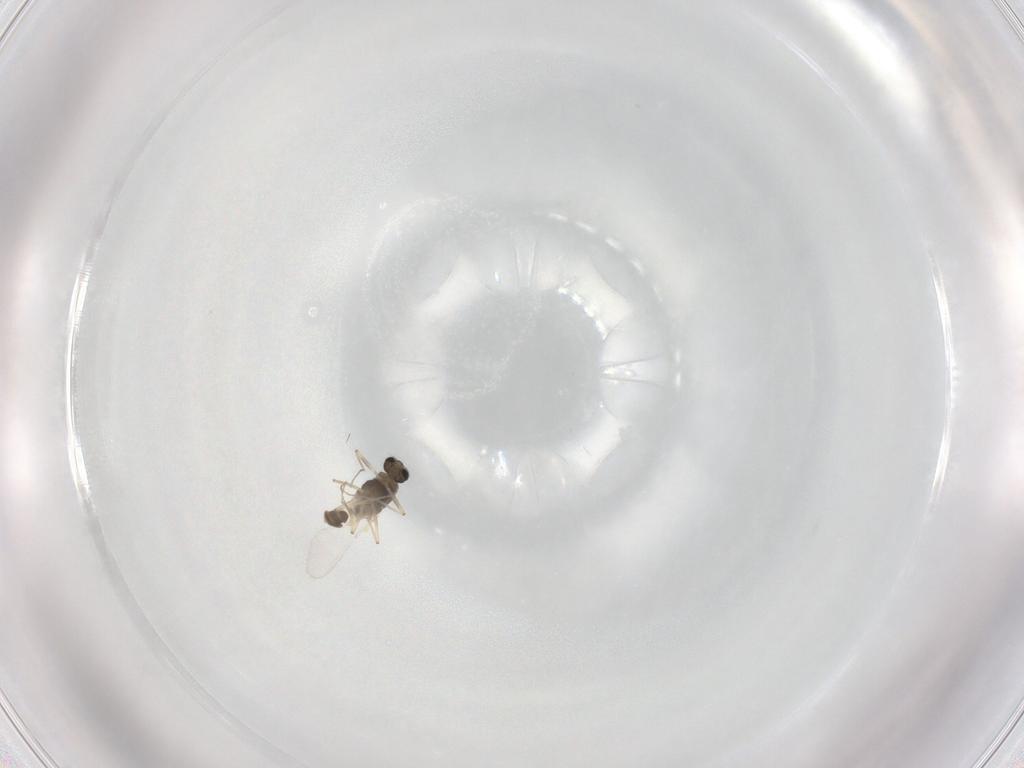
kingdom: Animalia
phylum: Arthropoda
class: Insecta
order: Diptera
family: Chironomidae
